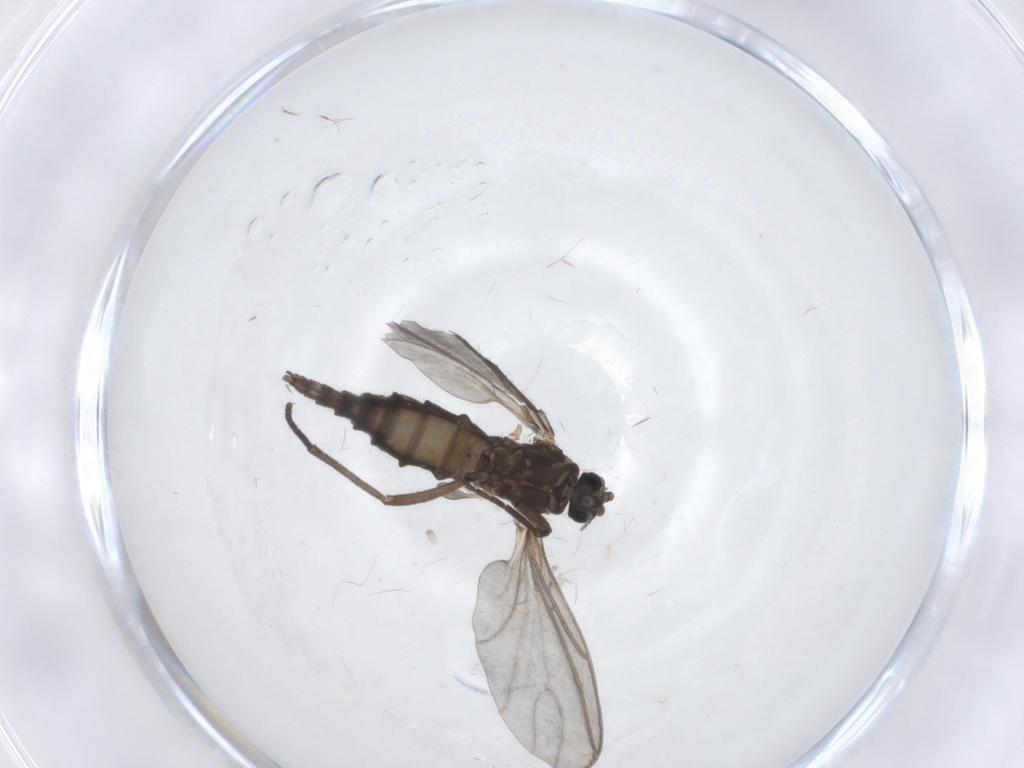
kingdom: Animalia
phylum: Arthropoda
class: Insecta
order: Diptera
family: Sciaridae
